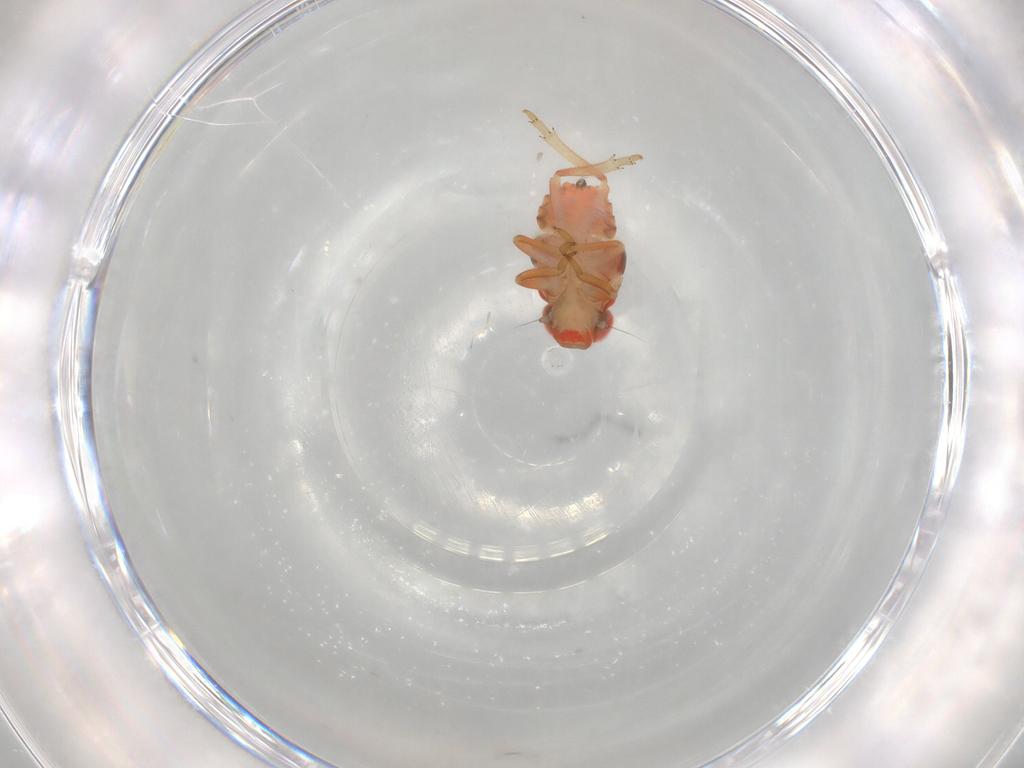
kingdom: Animalia
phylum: Arthropoda
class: Insecta
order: Hemiptera
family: Issidae
